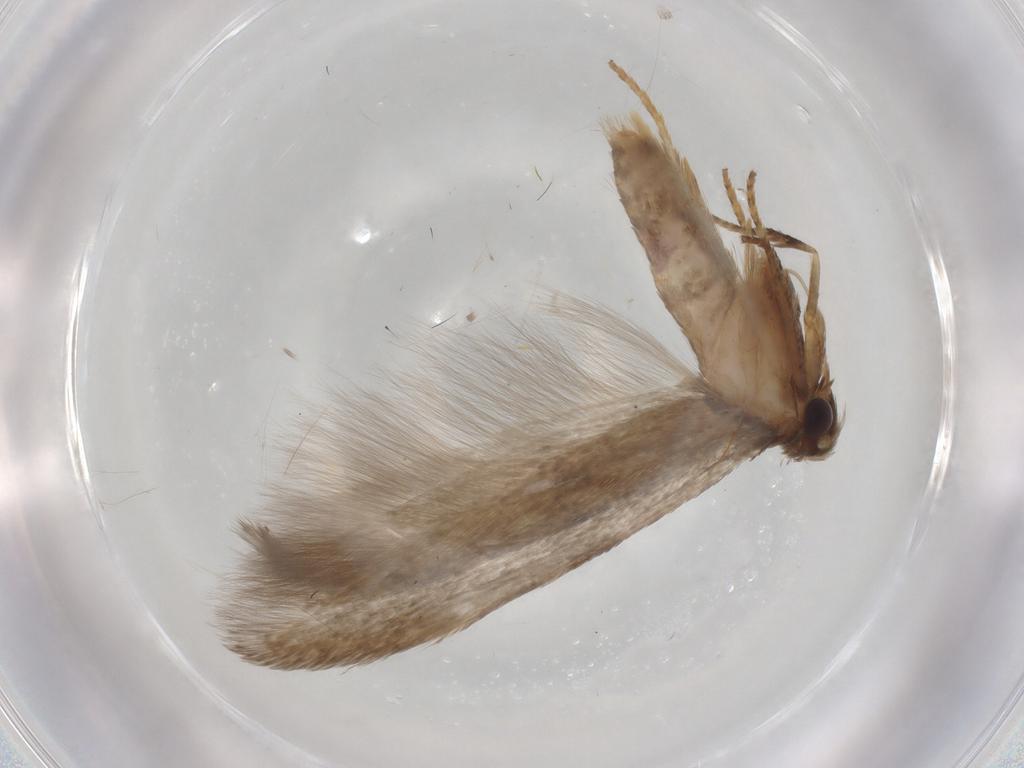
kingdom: Animalia
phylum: Arthropoda
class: Insecta
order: Lepidoptera
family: Blastobasidae
